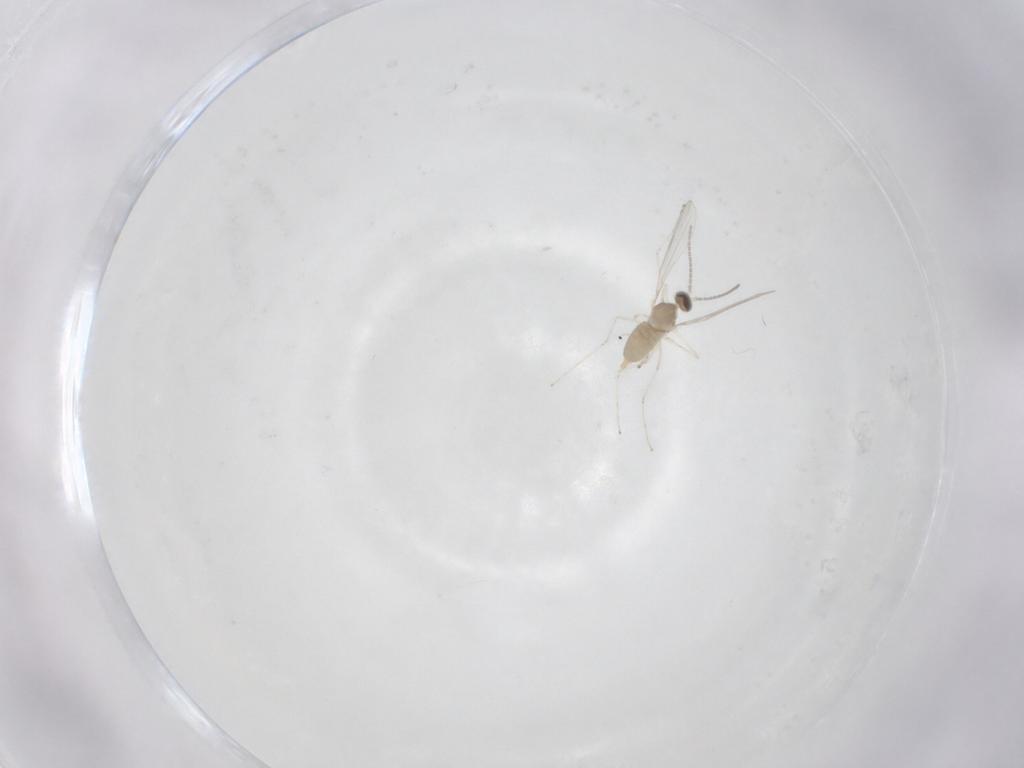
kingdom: Animalia
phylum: Arthropoda
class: Insecta
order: Diptera
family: Cecidomyiidae
